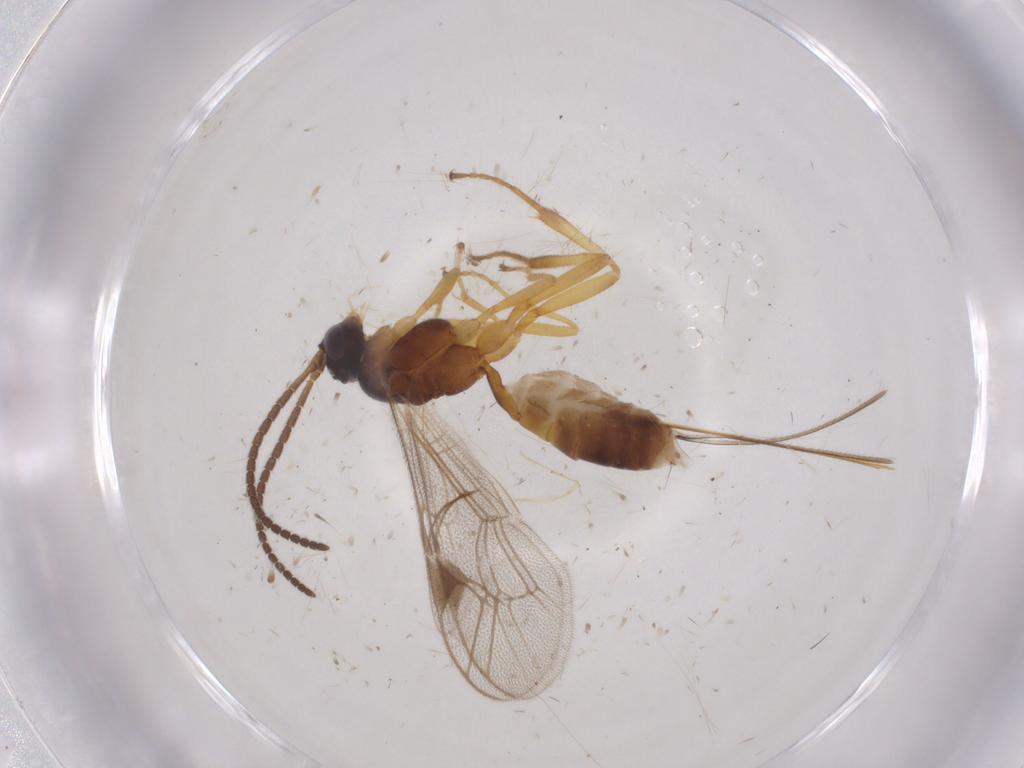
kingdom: Animalia
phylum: Arthropoda
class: Insecta
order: Hymenoptera
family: Ichneumonidae
